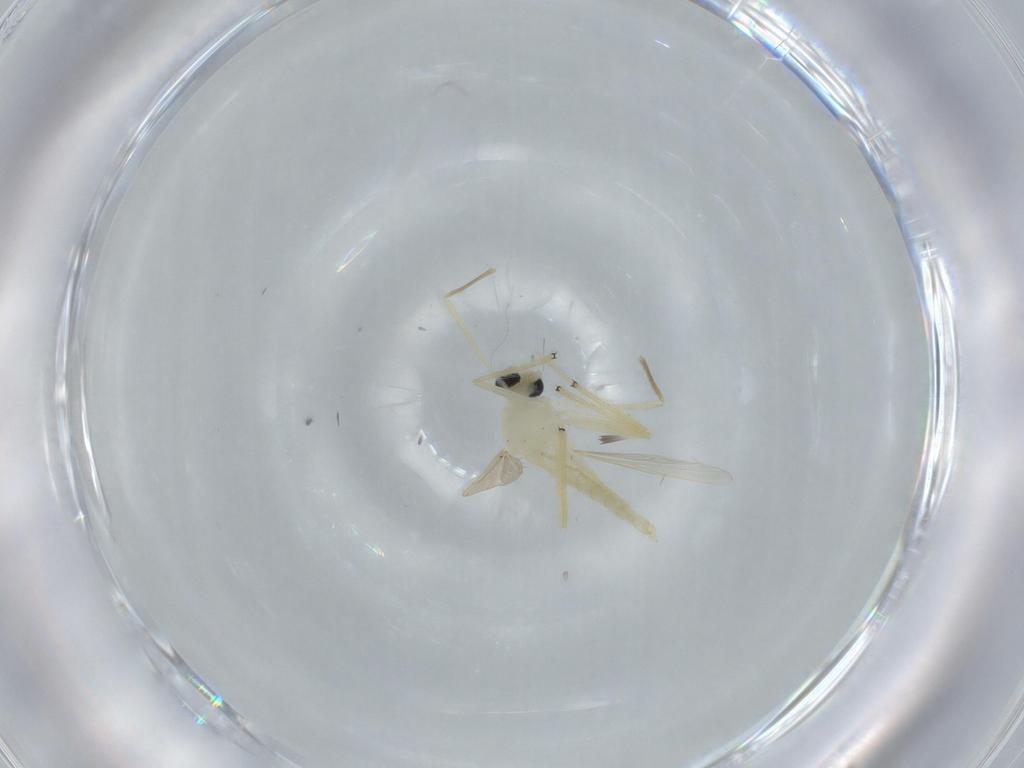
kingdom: Animalia
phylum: Arthropoda
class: Insecta
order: Diptera
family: Chironomidae
